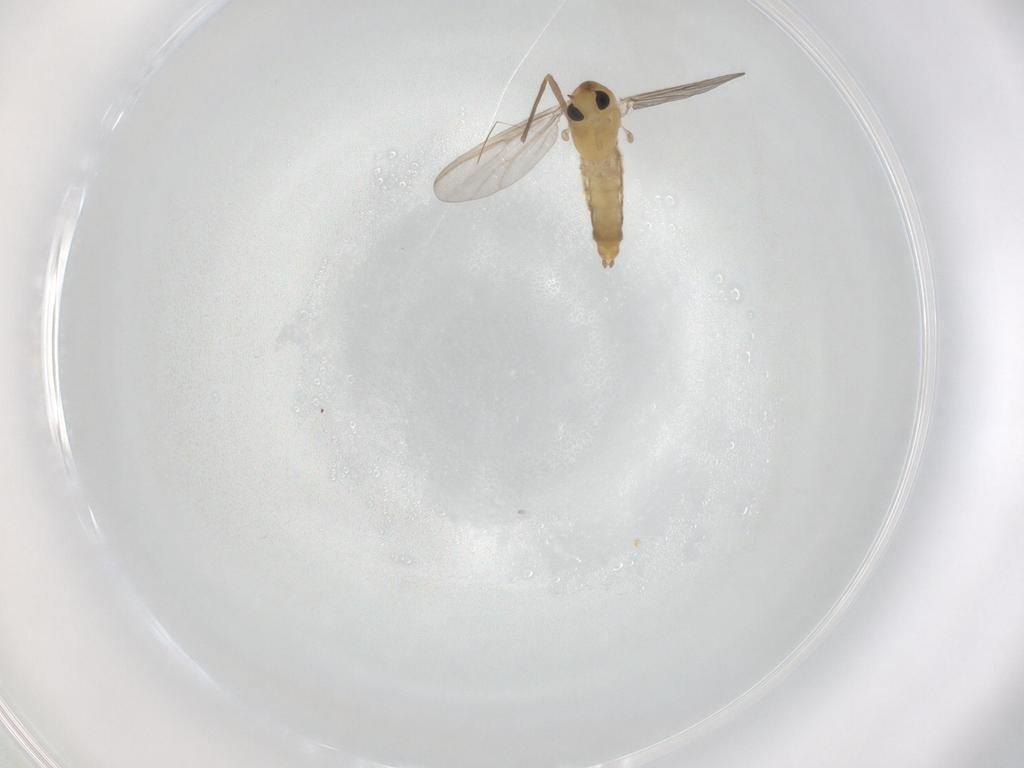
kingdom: Animalia
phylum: Arthropoda
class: Insecta
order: Diptera
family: Chironomidae
